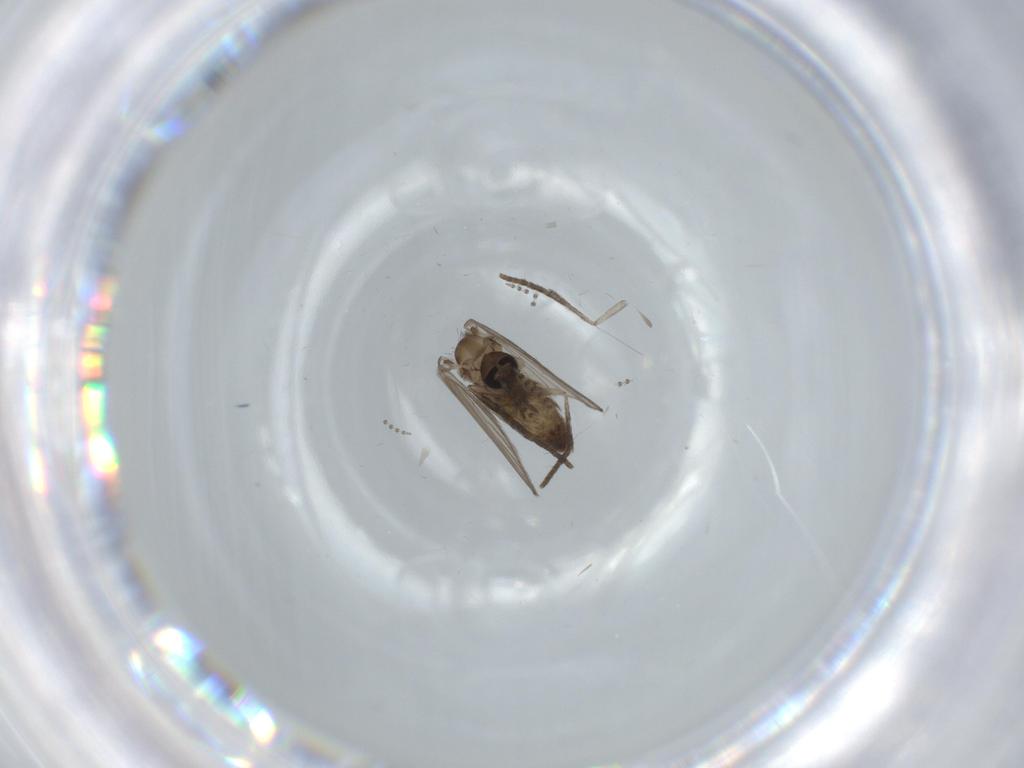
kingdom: Animalia
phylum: Arthropoda
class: Insecta
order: Diptera
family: Psychodidae
